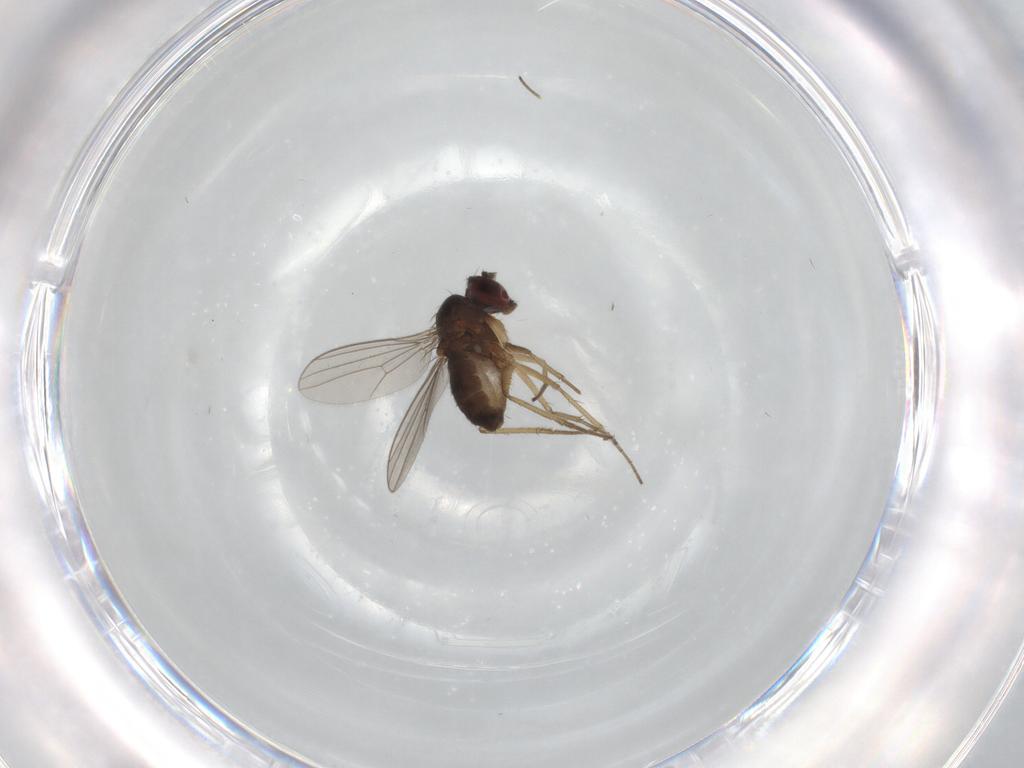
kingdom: Animalia
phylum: Arthropoda
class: Insecta
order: Diptera
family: Dolichopodidae
